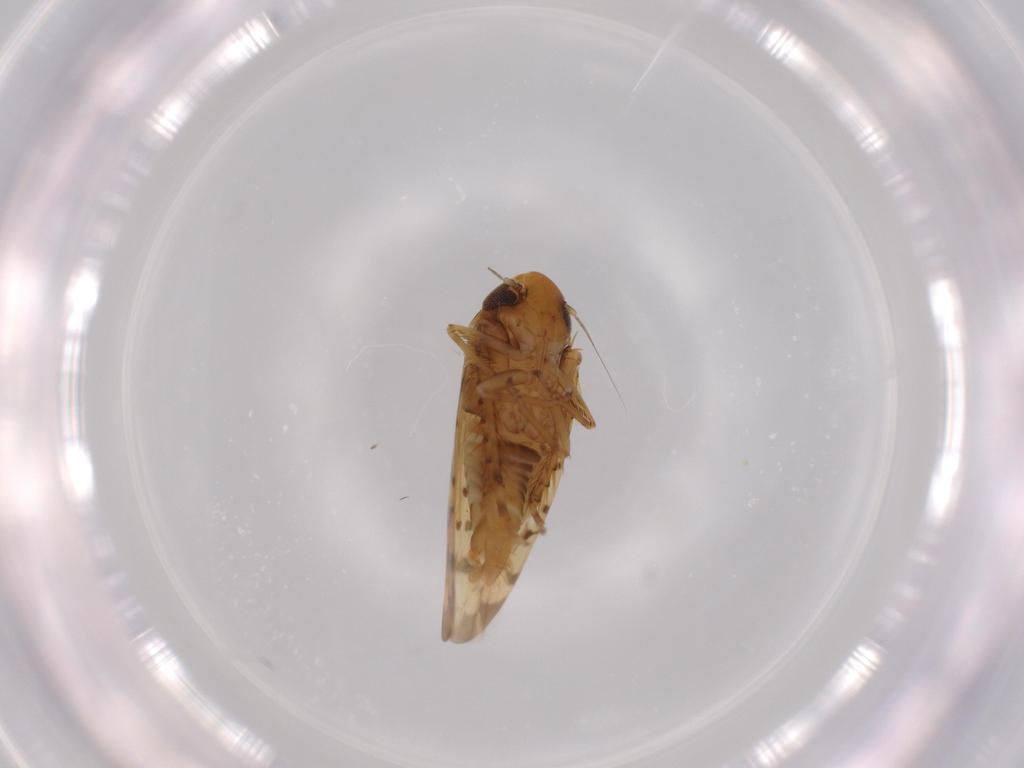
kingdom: Animalia
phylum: Arthropoda
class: Insecta
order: Hemiptera
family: Cicadellidae
